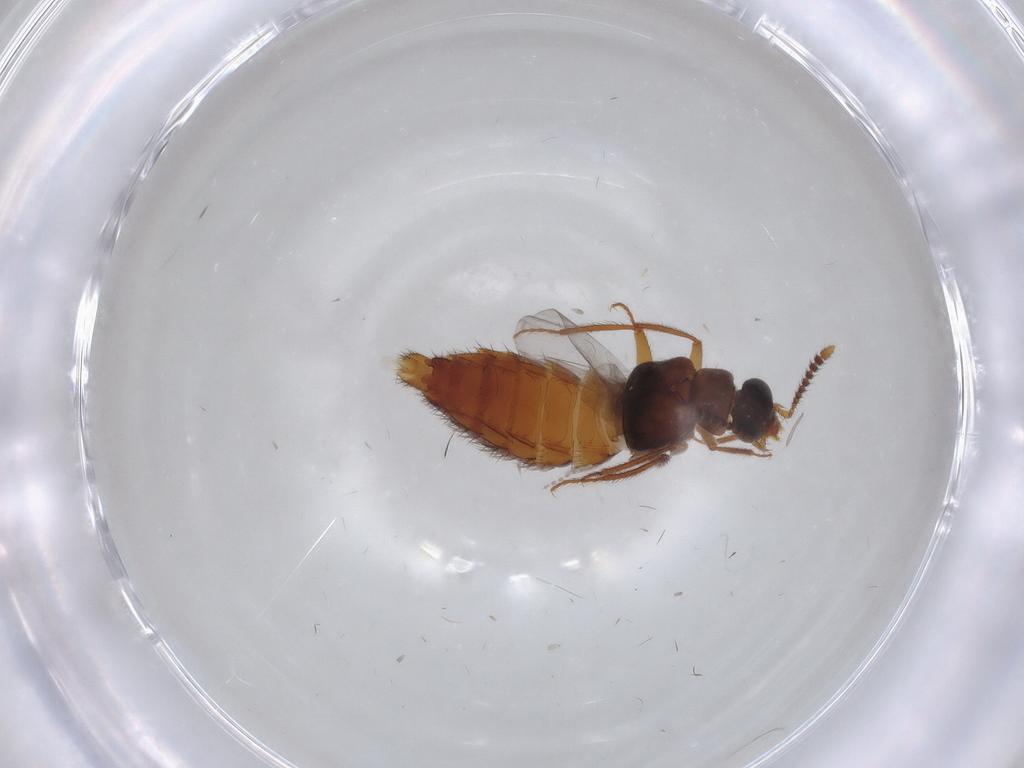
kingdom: Animalia
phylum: Arthropoda
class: Insecta
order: Coleoptera
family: Staphylinidae
